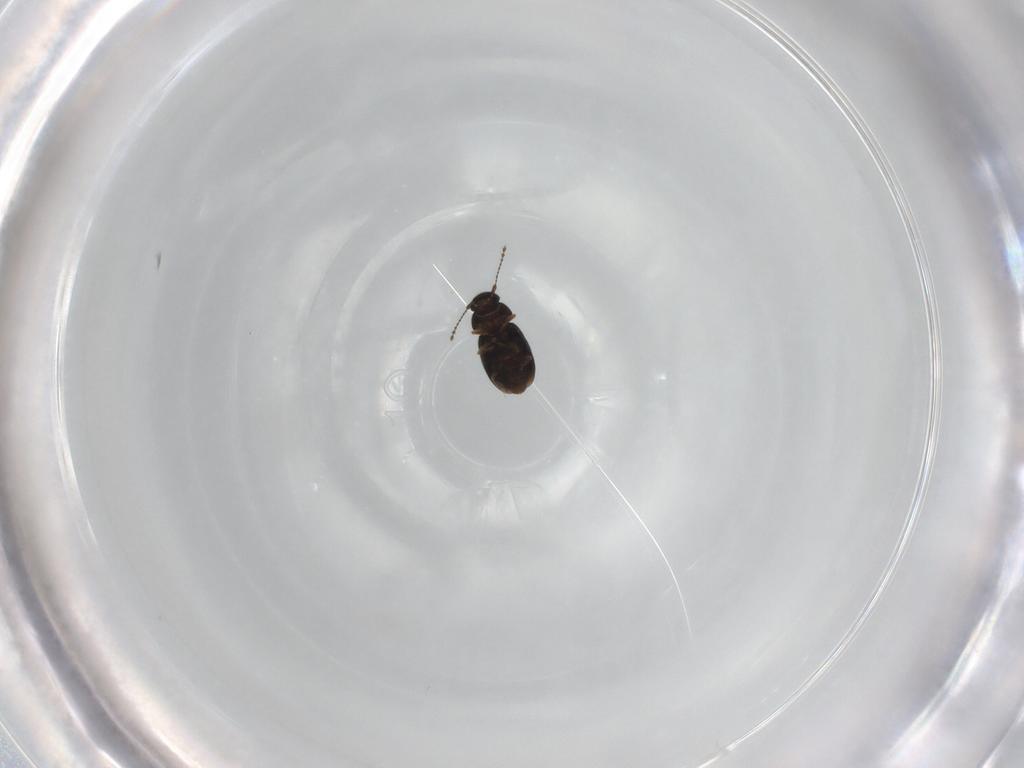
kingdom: Animalia
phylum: Arthropoda
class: Insecta
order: Coleoptera
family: Ptiliidae
